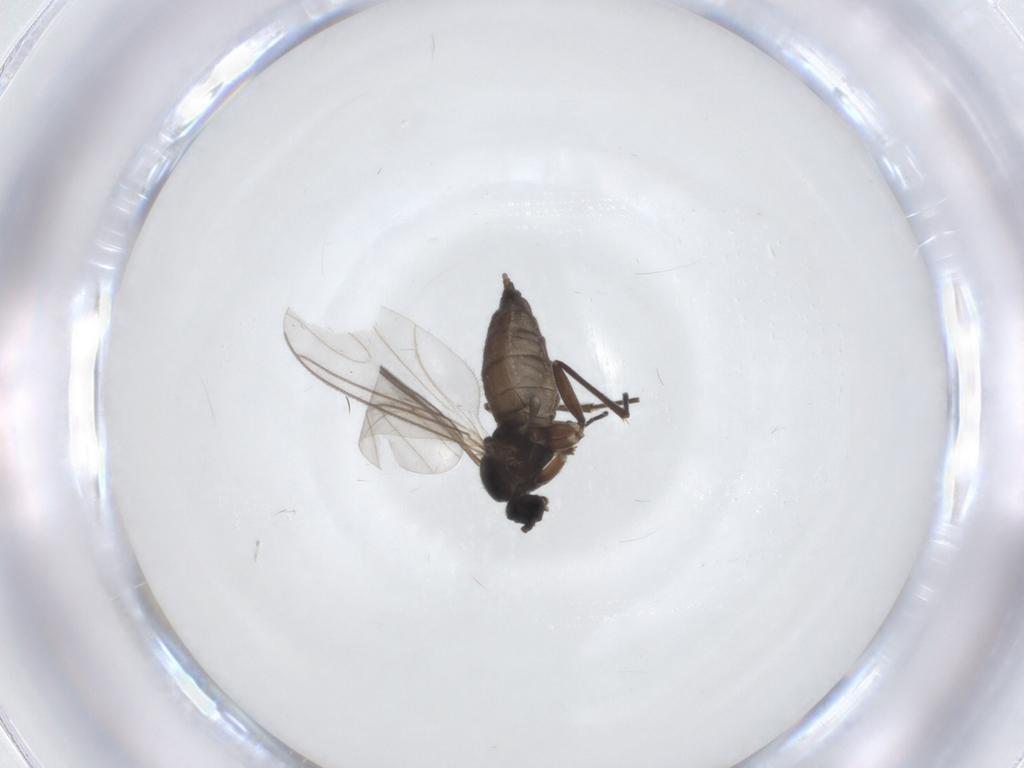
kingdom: Animalia
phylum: Arthropoda
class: Insecta
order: Diptera
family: Sciaridae
